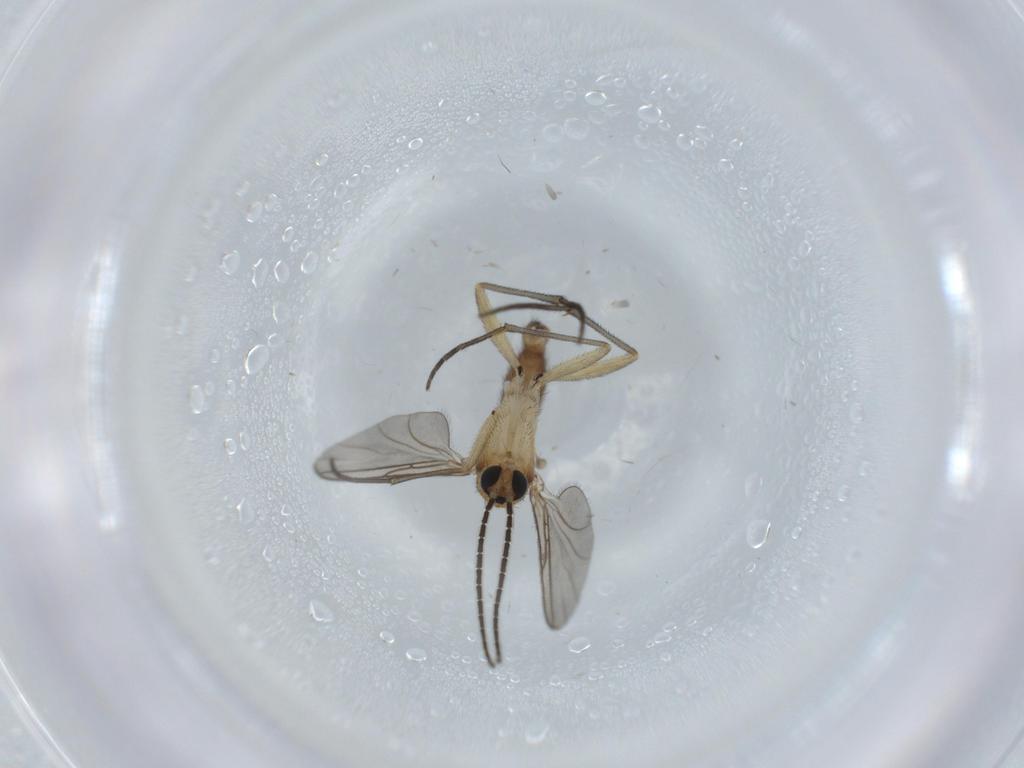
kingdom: Animalia
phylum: Arthropoda
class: Insecta
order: Diptera
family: Sciaridae
